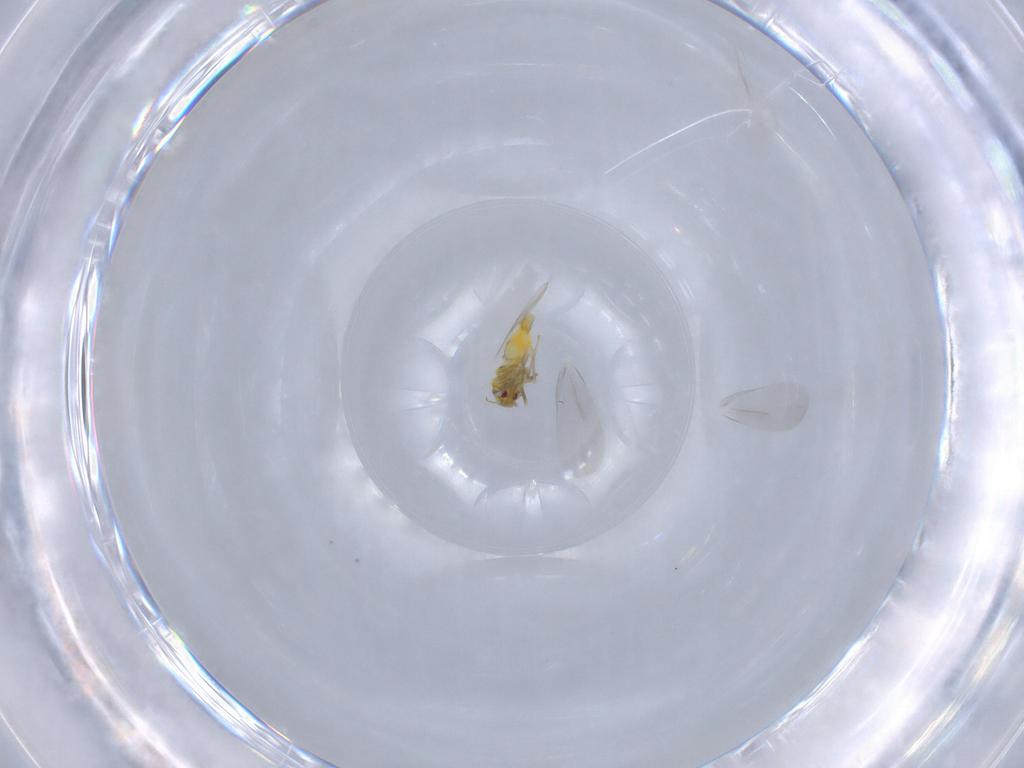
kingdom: Animalia
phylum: Arthropoda
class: Insecta
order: Hemiptera
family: Aleyrodidae
